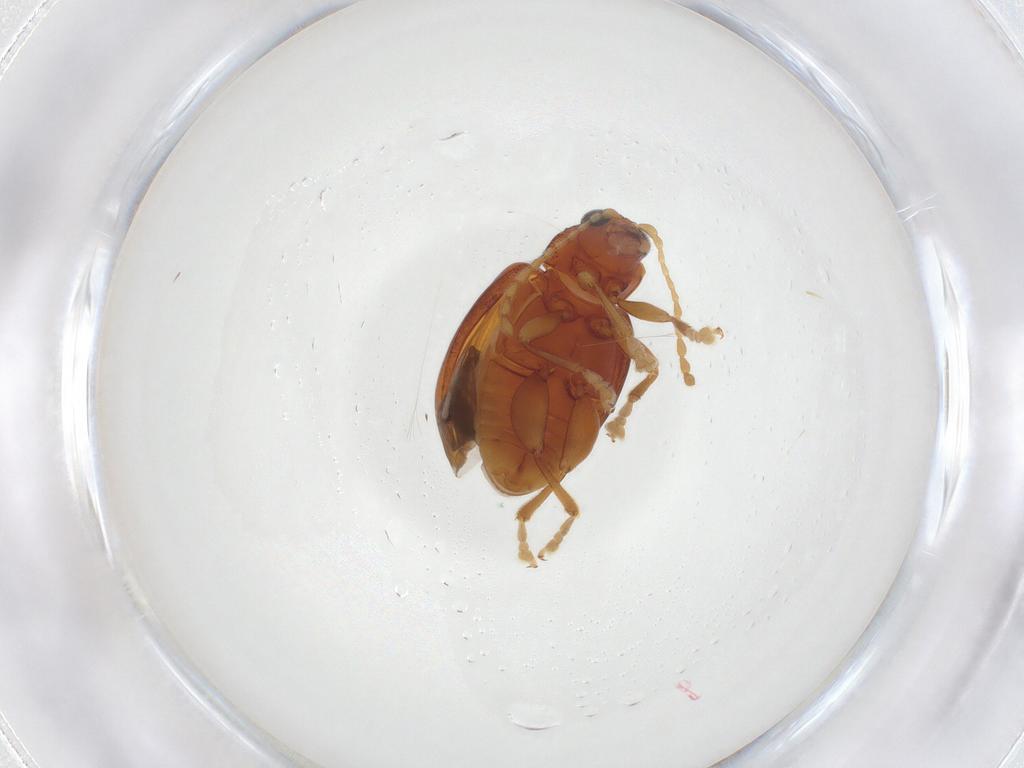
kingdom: Animalia
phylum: Arthropoda
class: Insecta
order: Coleoptera
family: Chrysomelidae
